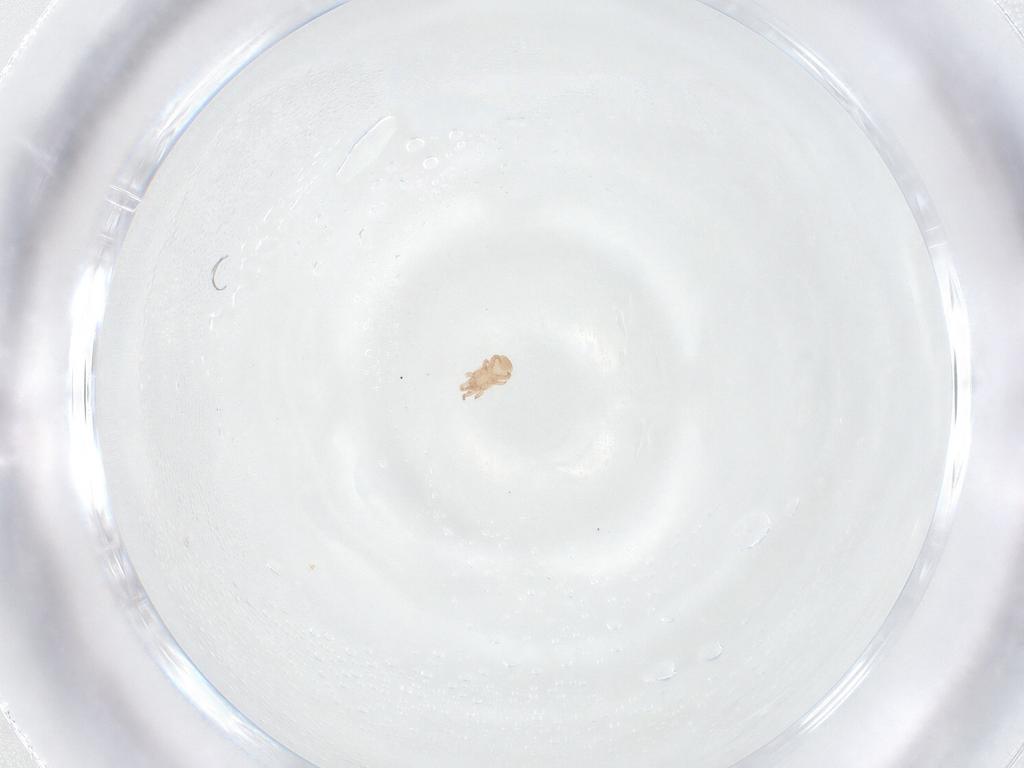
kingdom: Animalia
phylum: Arthropoda
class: Arachnida
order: Mesostigmata
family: Digamasellidae
